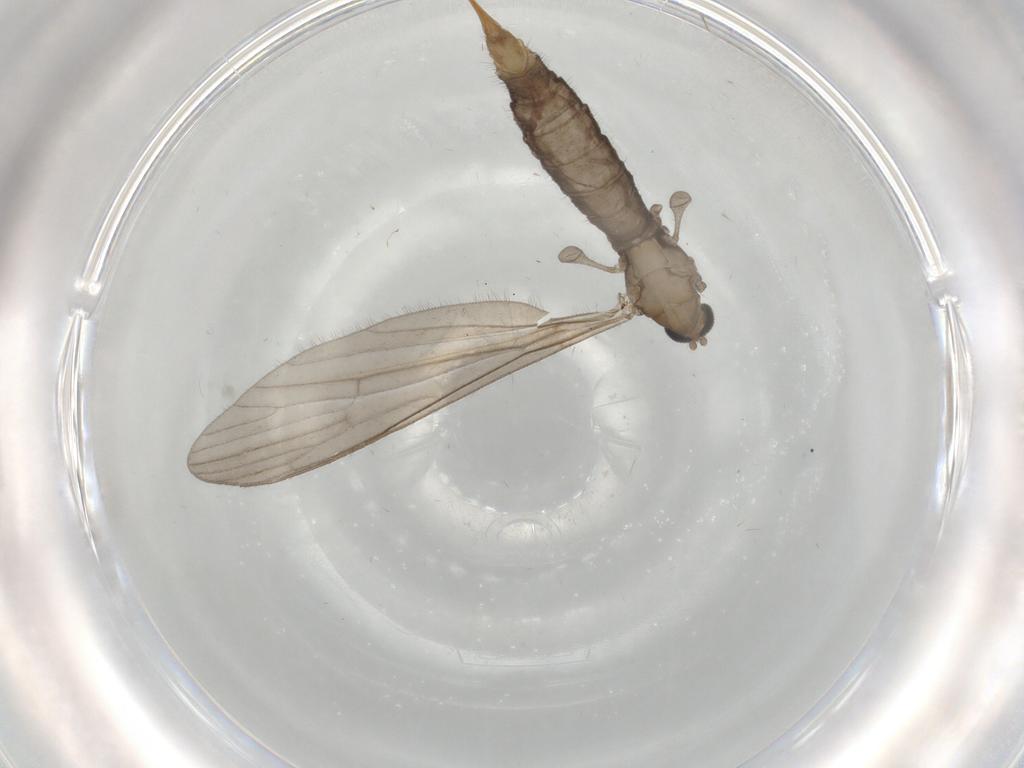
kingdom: Animalia
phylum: Arthropoda
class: Insecta
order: Diptera
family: Limoniidae
